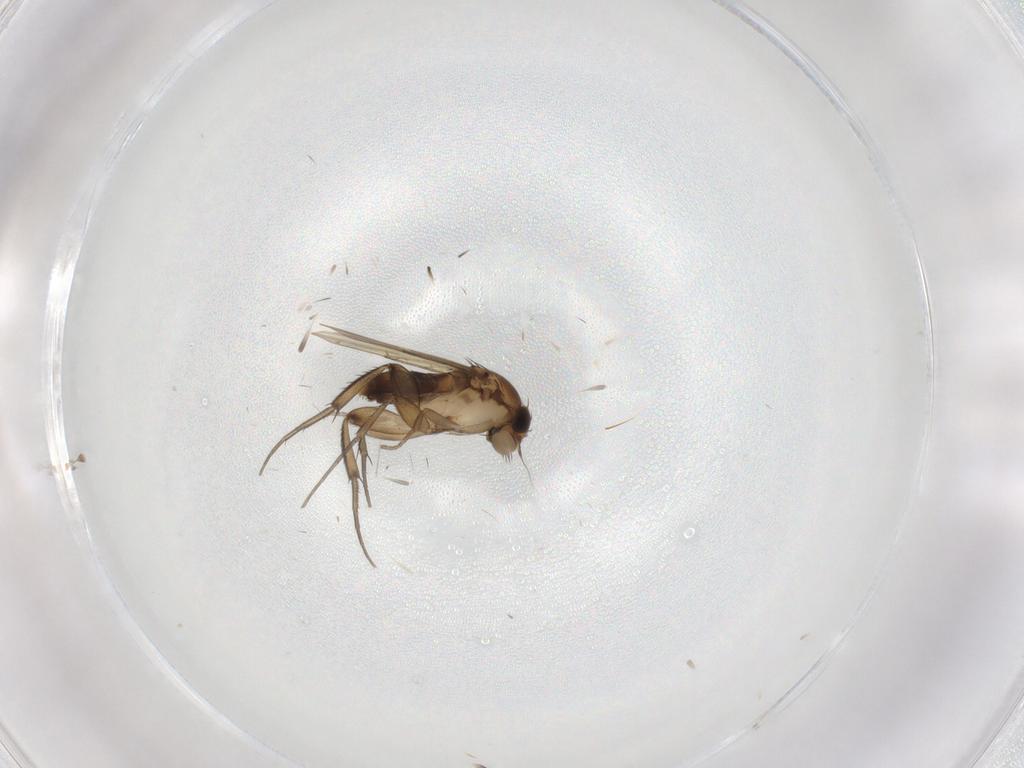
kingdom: Animalia
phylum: Arthropoda
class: Insecta
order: Diptera
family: Phoridae
